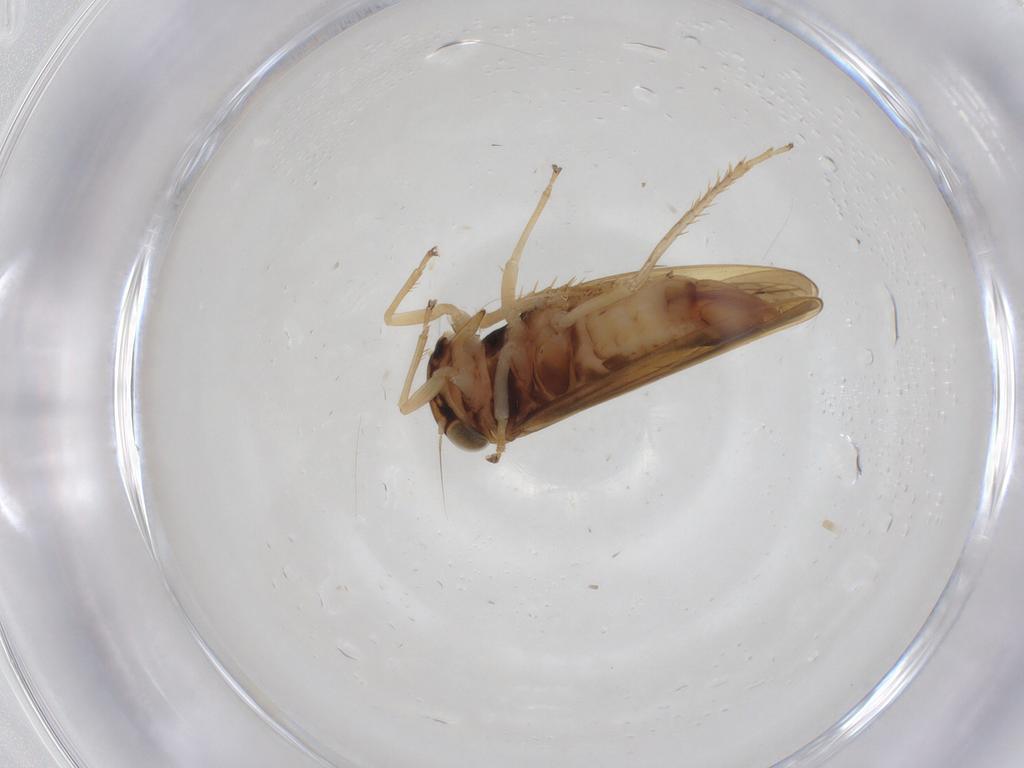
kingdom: Animalia
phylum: Arthropoda
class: Insecta
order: Hemiptera
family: Cicadellidae
